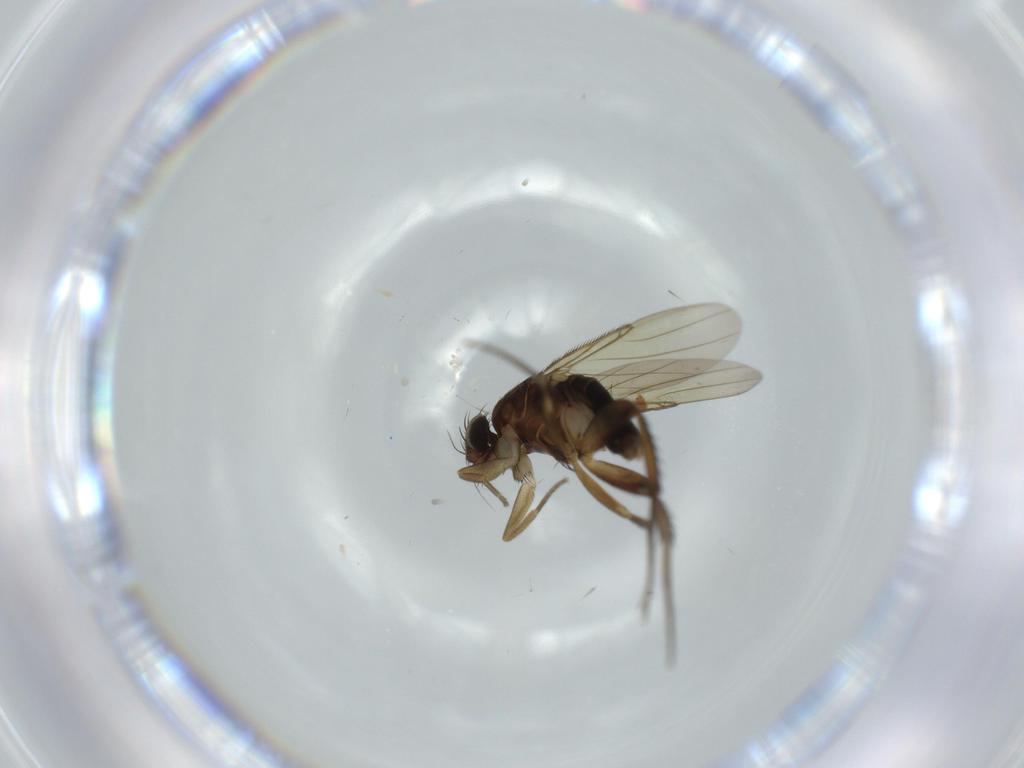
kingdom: Animalia
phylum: Arthropoda
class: Insecta
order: Diptera
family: Phoridae
